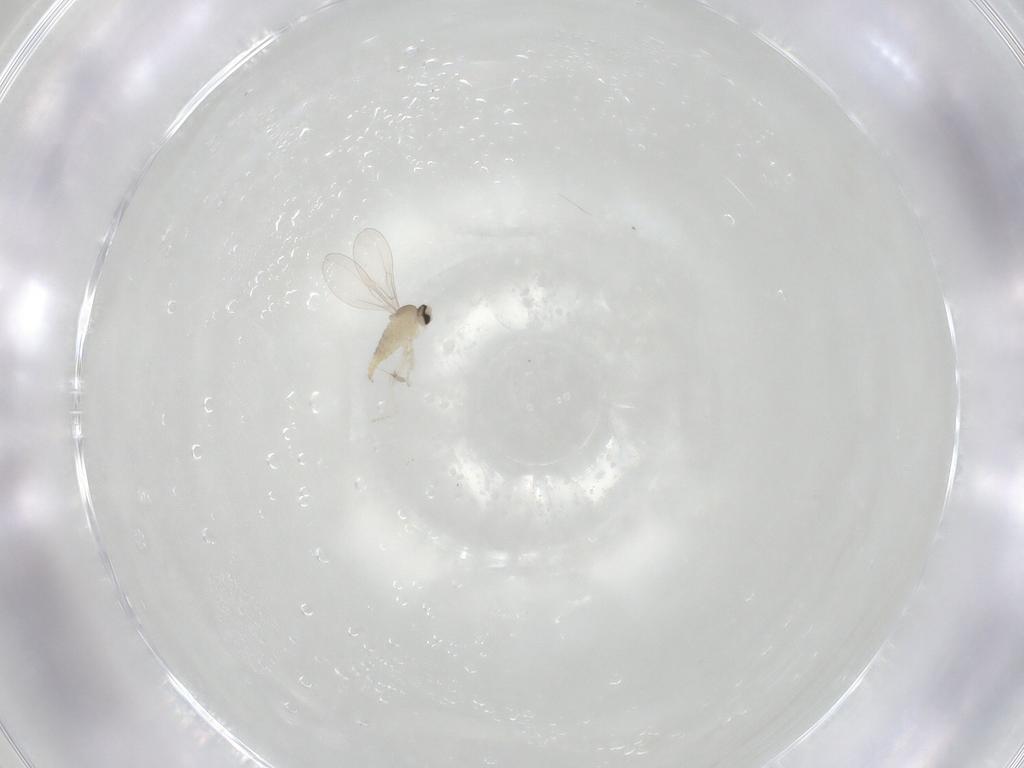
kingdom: Animalia
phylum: Arthropoda
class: Insecta
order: Diptera
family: Cecidomyiidae
